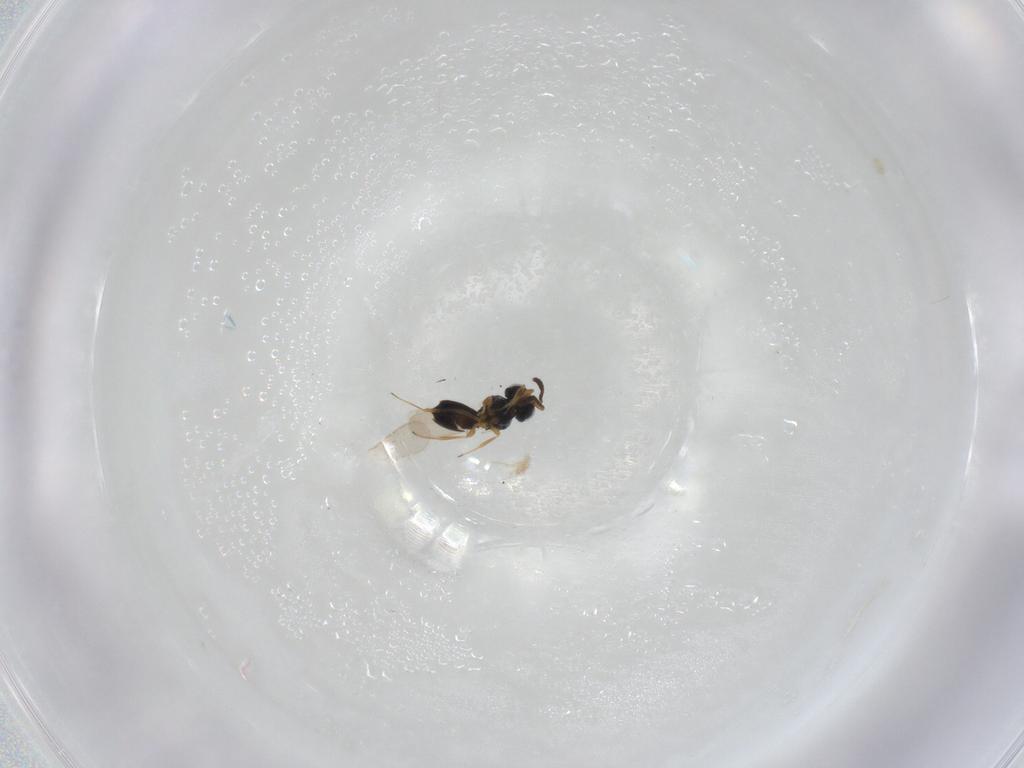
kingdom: Animalia
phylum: Arthropoda
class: Insecta
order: Hymenoptera
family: Scelionidae
